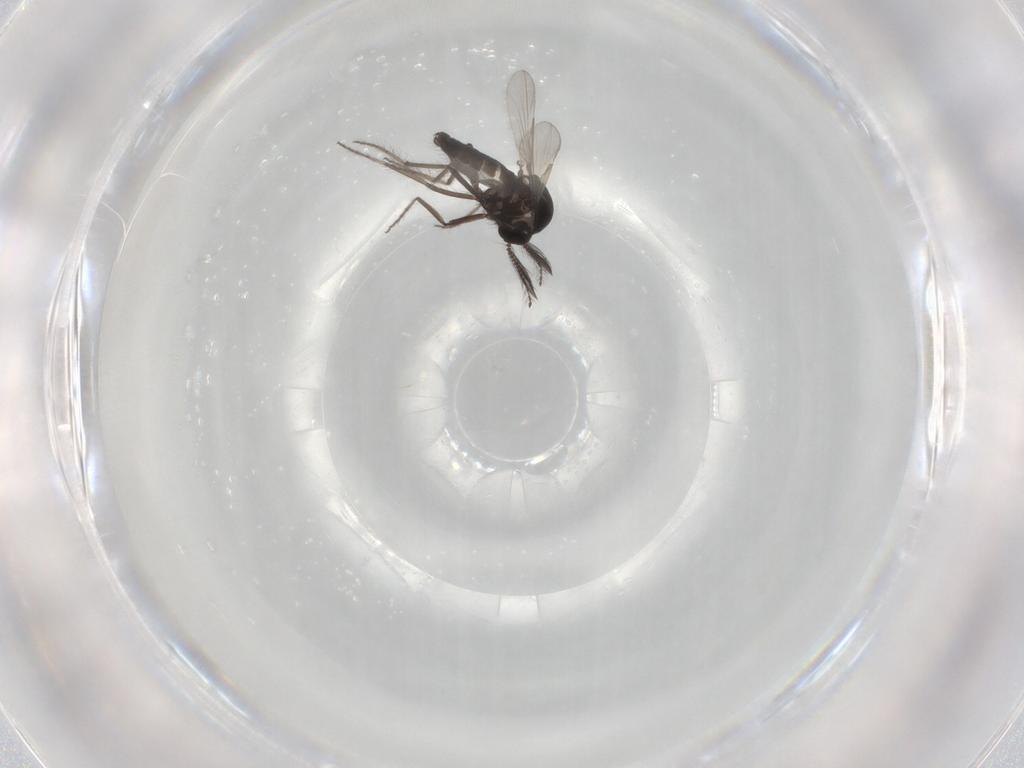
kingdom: Animalia
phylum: Arthropoda
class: Insecta
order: Diptera
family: Ceratopogonidae
